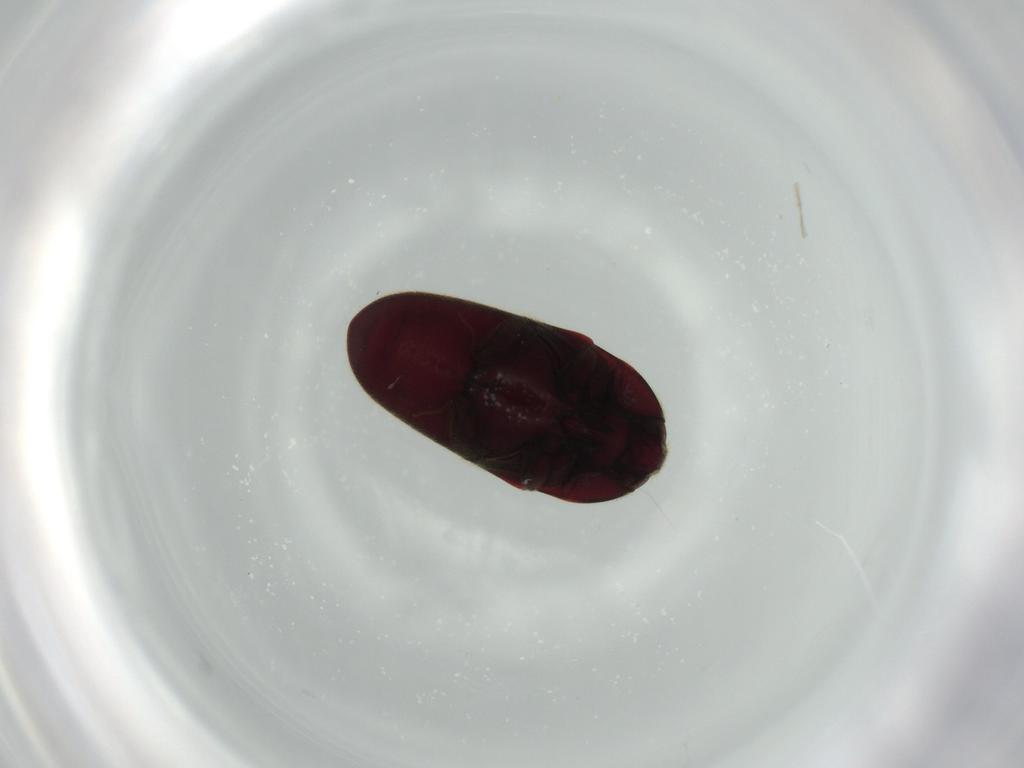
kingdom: Animalia
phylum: Arthropoda
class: Insecta
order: Coleoptera
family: Throscidae
